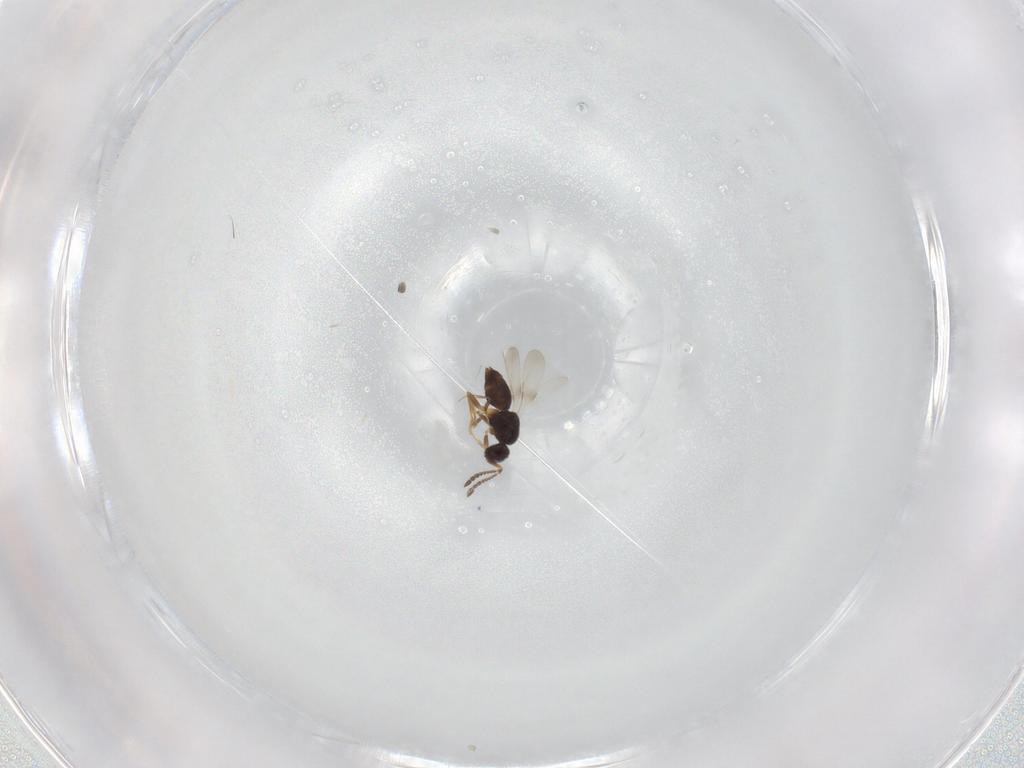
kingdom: Animalia
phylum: Arthropoda
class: Insecta
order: Hymenoptera
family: Ceraphronidae
